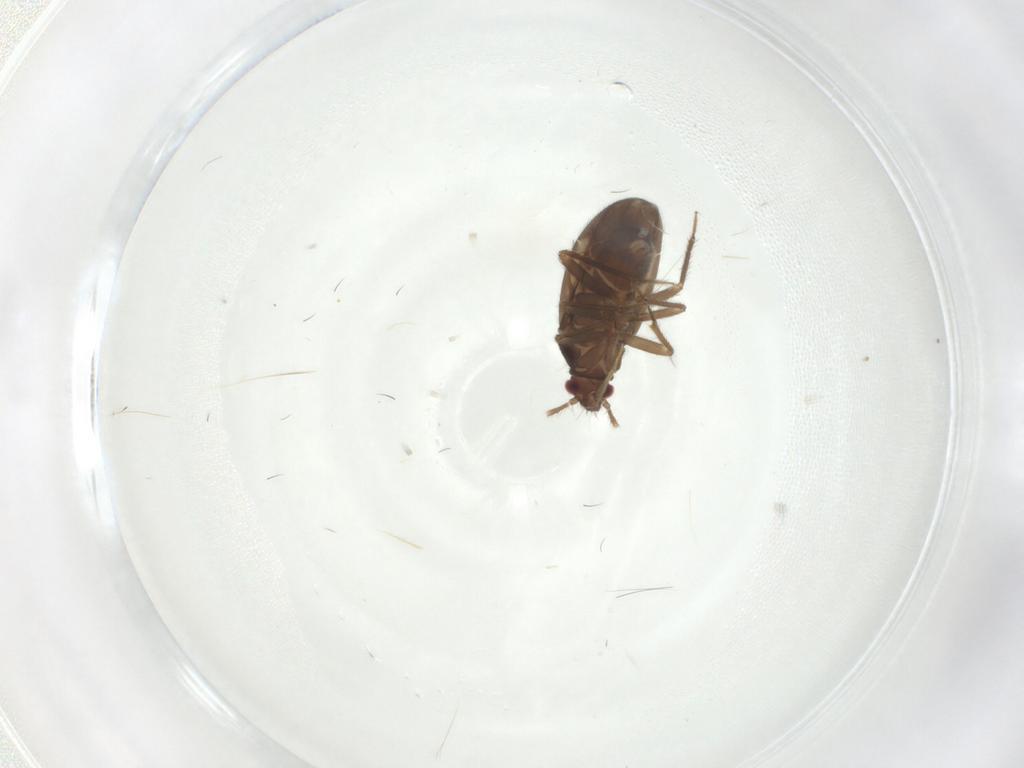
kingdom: Animalia
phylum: Arthropoda
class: Insecta
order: Hemiptera
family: Ceratocombidae
